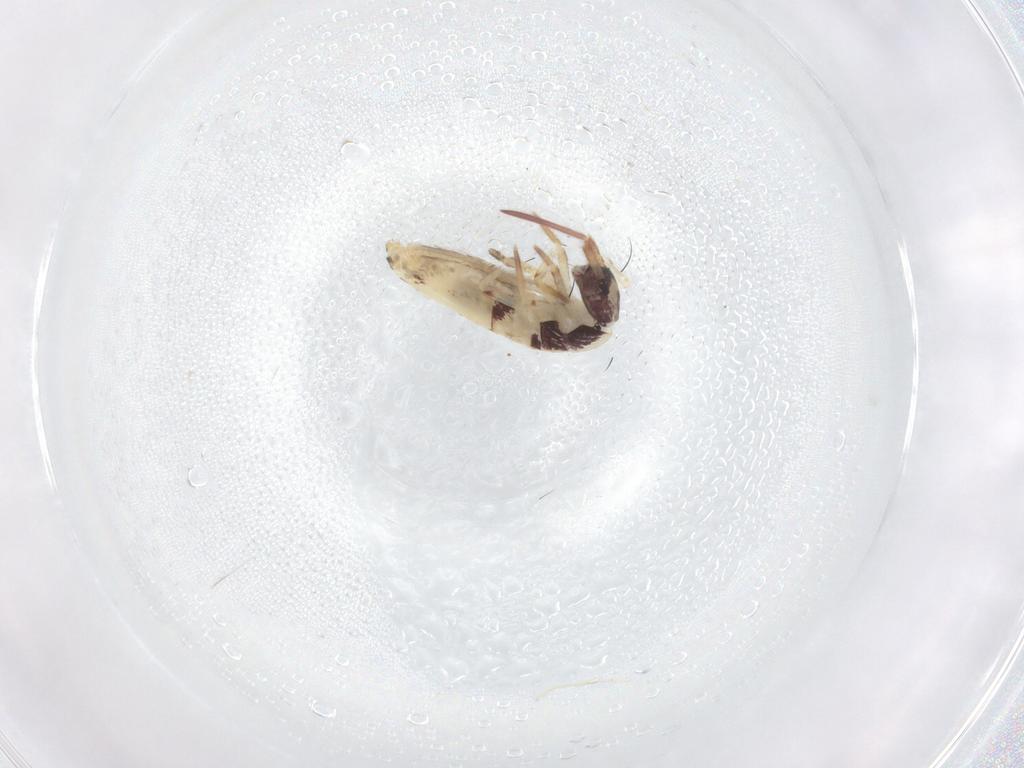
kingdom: Animalia
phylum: Arthropoda
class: Collembola
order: Entomobryomorpha
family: Entomobryidae
